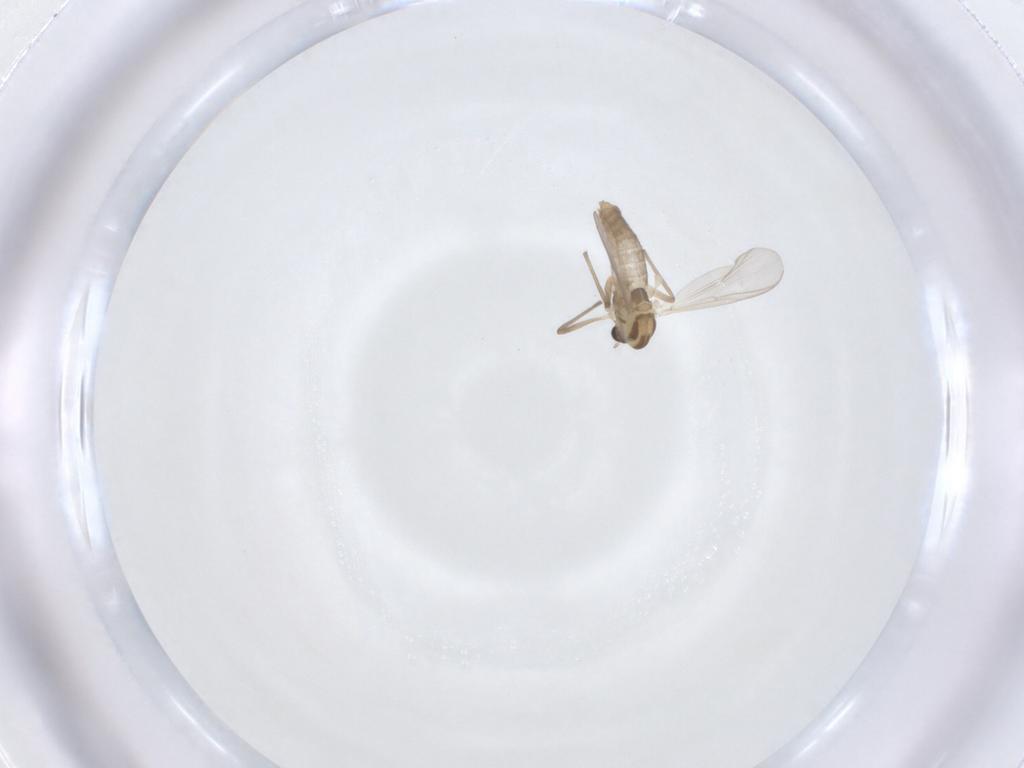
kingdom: Animalia
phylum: Arthropoda
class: Insecta
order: Diptera
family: Chironomidae
